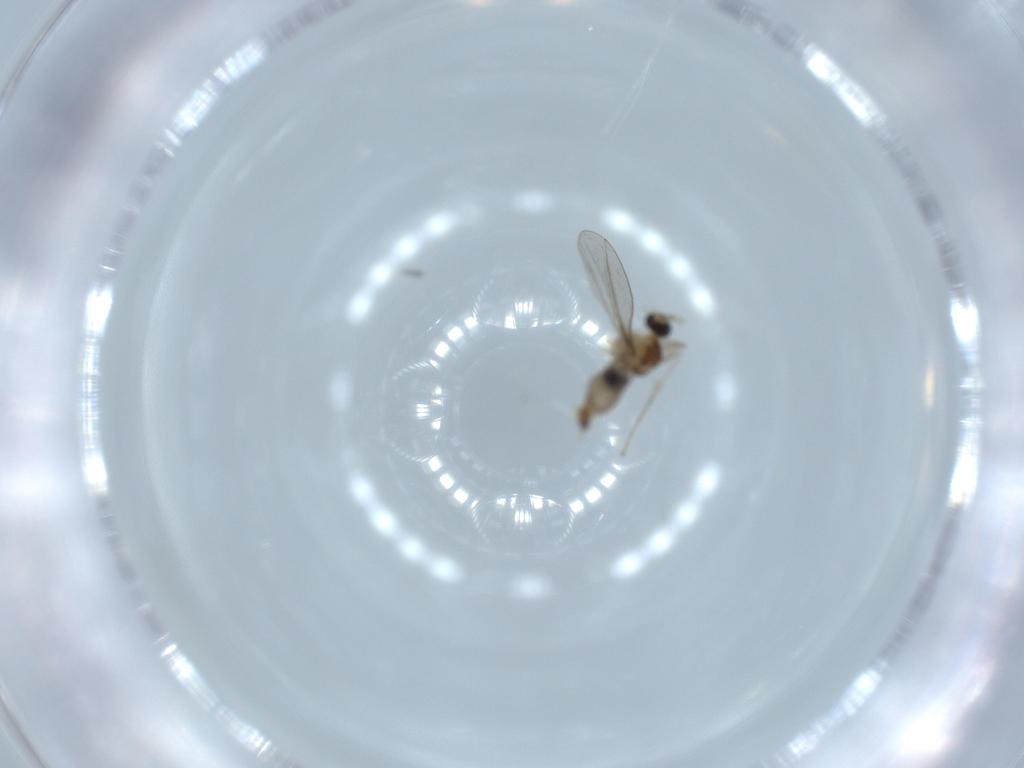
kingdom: Animalia
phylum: Arthropoda
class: Insecta
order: Diptera
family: Cecidomyiidae
